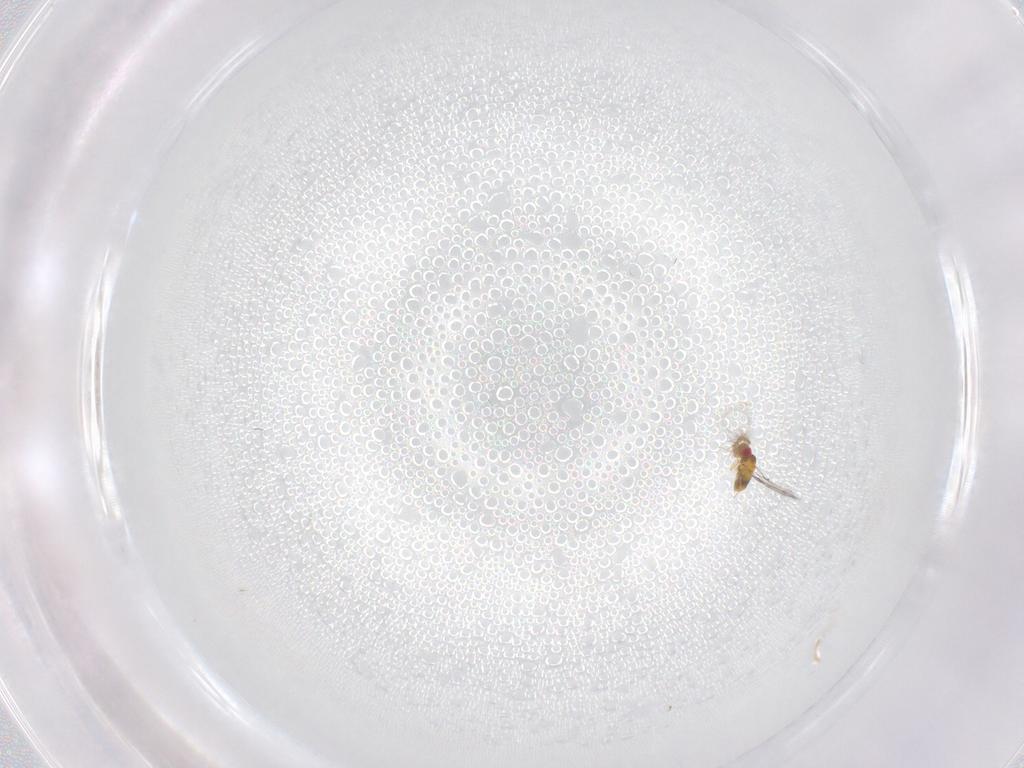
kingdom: Animalia
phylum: Arthropoda
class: Insecta
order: Hymenoptera
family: Trichogrammatidae
